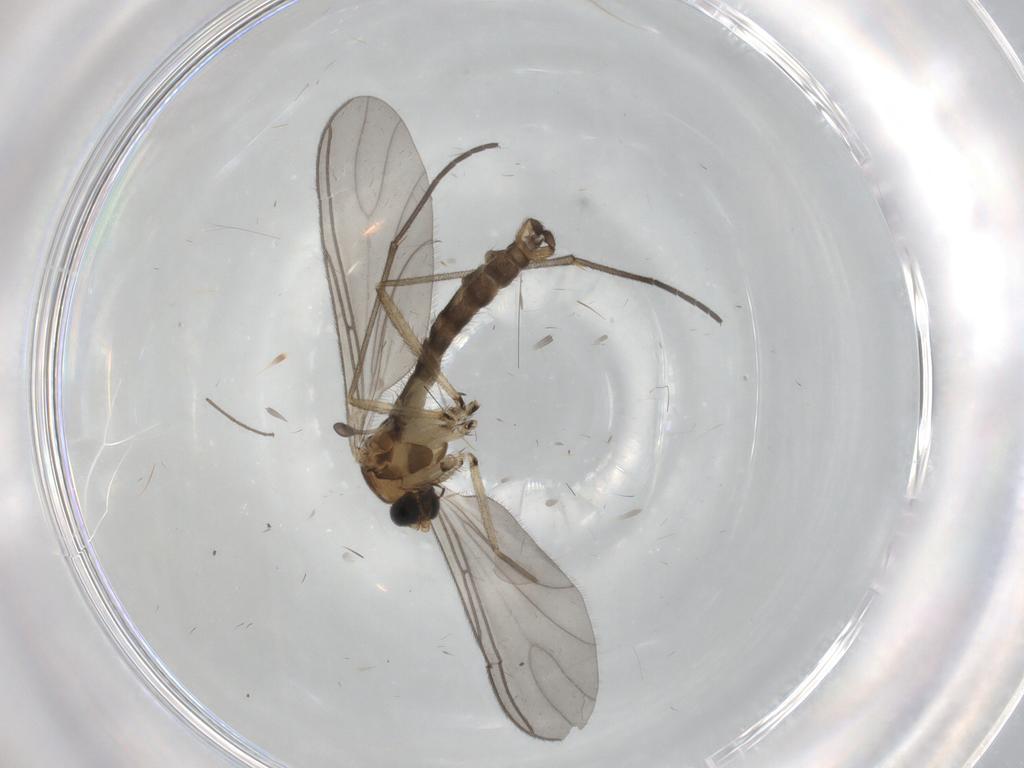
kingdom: Animalia
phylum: Arthropoda
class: Insecta
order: Diptera
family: Sciaridae
